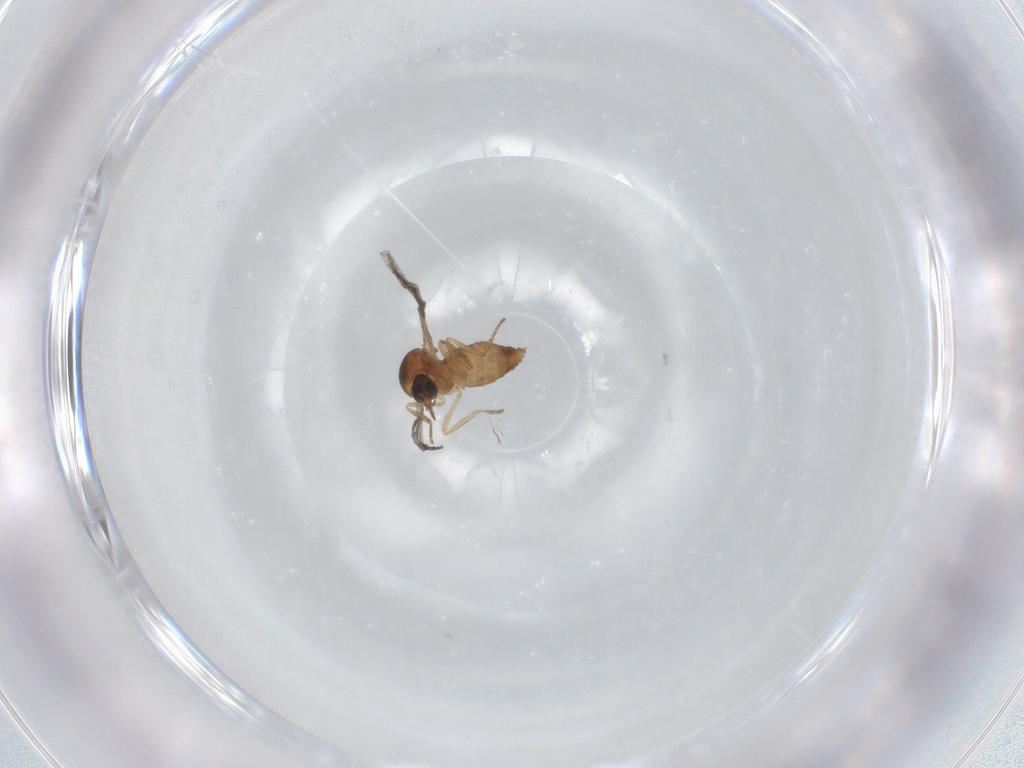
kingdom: Animalia
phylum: Arthropoda
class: Insecta
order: Diptera
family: Ceratopogonidae
